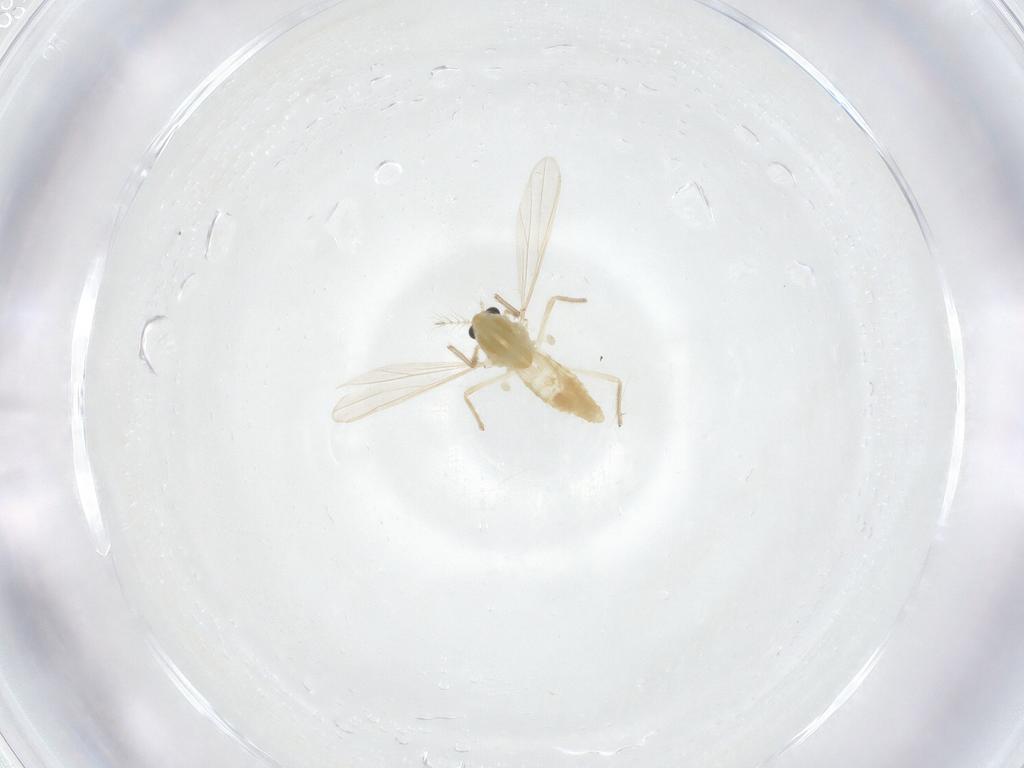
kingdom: Animalia
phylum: Arthropoda
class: Insecta
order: Diptera
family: Chironomidae
